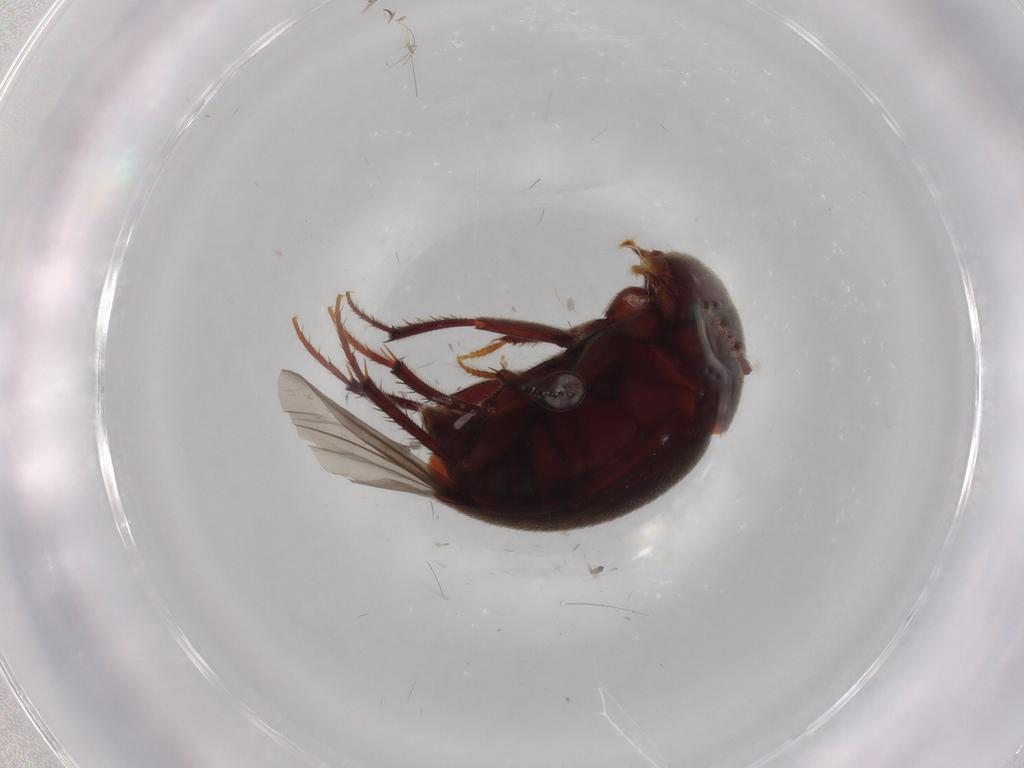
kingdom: Animalia
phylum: Arthropoda
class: Insecta
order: Coleoptera
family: Leiodidae
